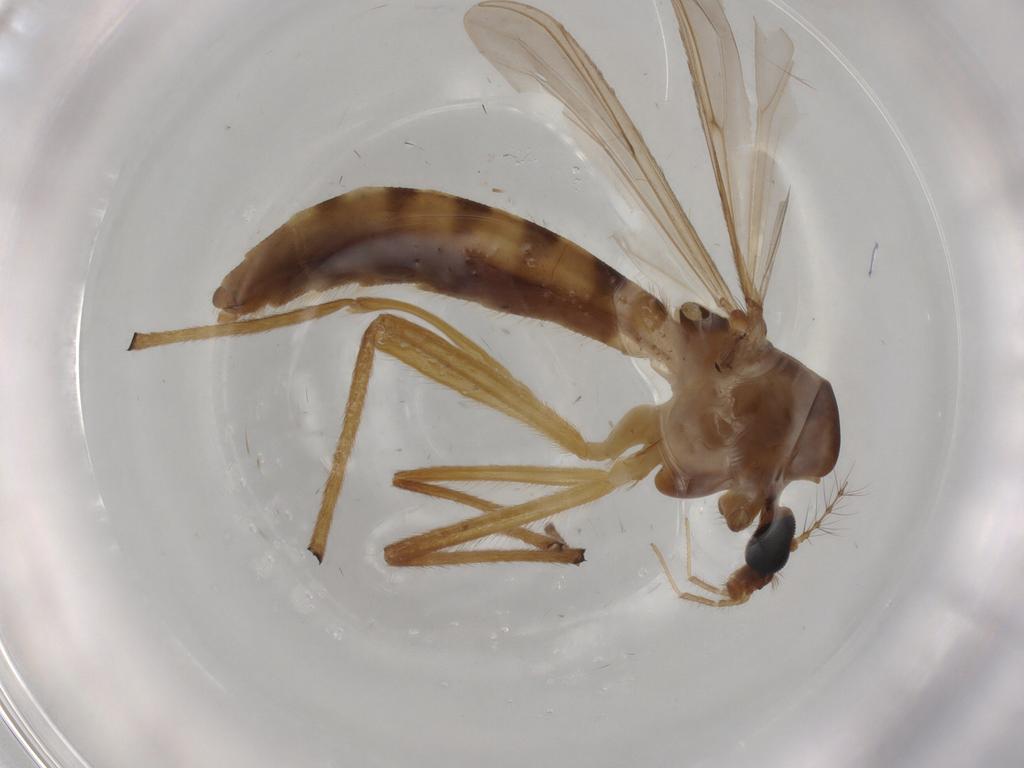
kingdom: Animalia
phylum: Arthropoda
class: Insecta
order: Diptera
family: Chironomidae
